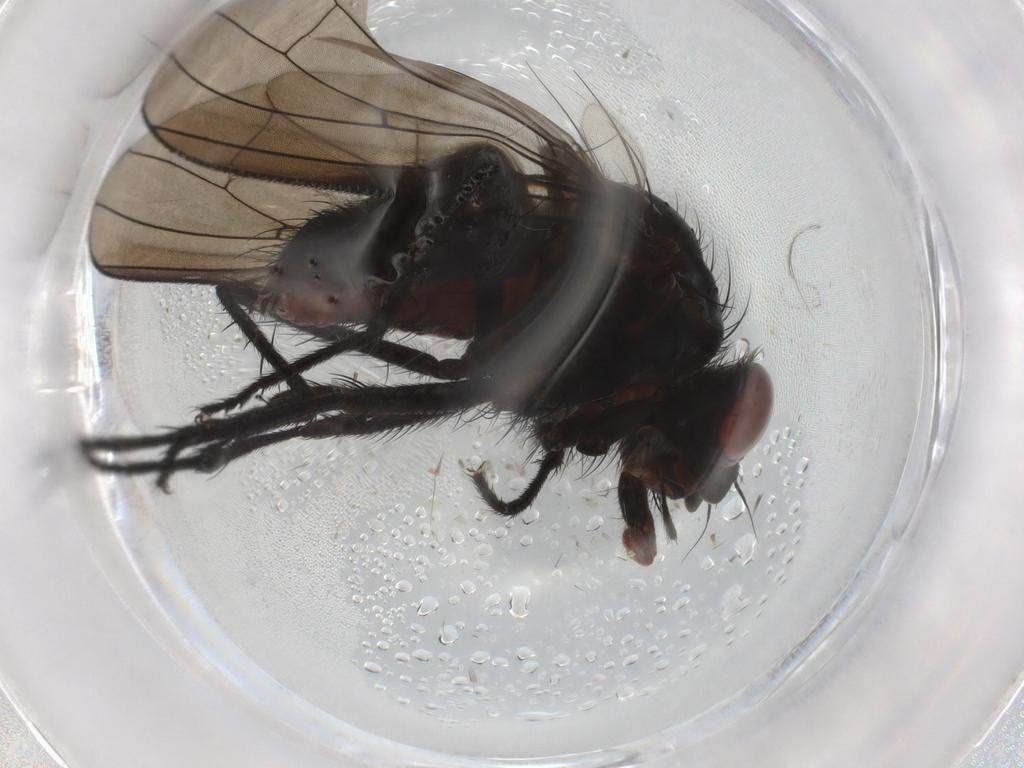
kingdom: Animalia
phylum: Arthropoda
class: Insecta
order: Diptera
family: Anthomyiidae
